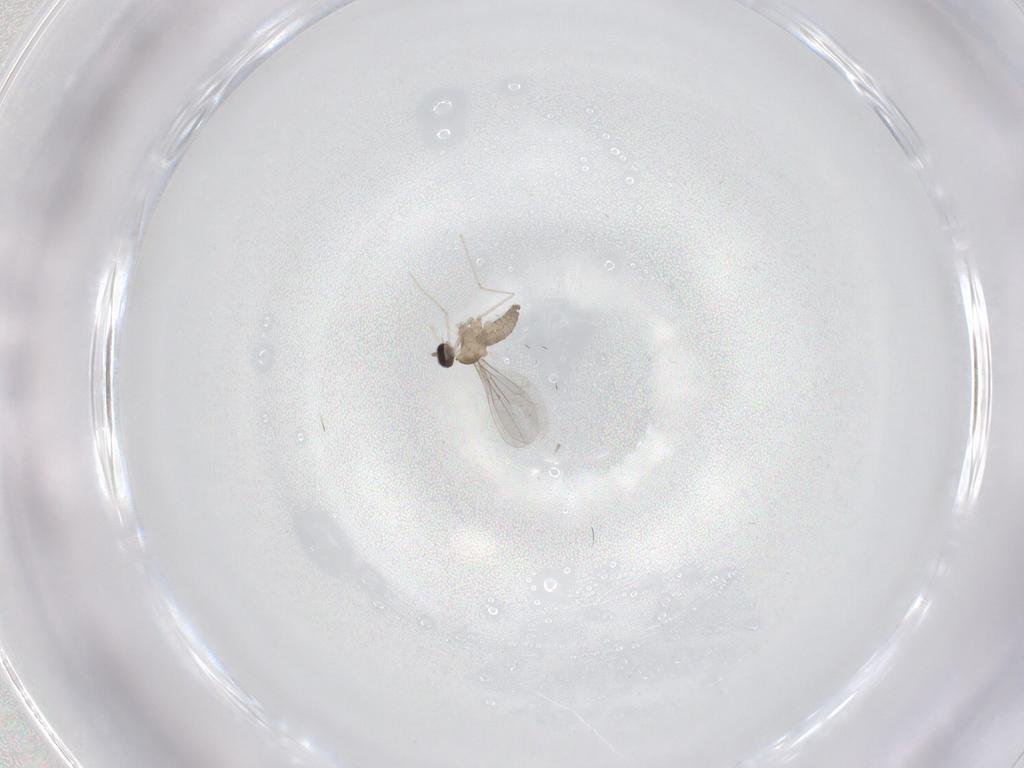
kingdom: Animalia
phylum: Arthropoda
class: Insecta
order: Diptera
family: Cecidomyiidae
